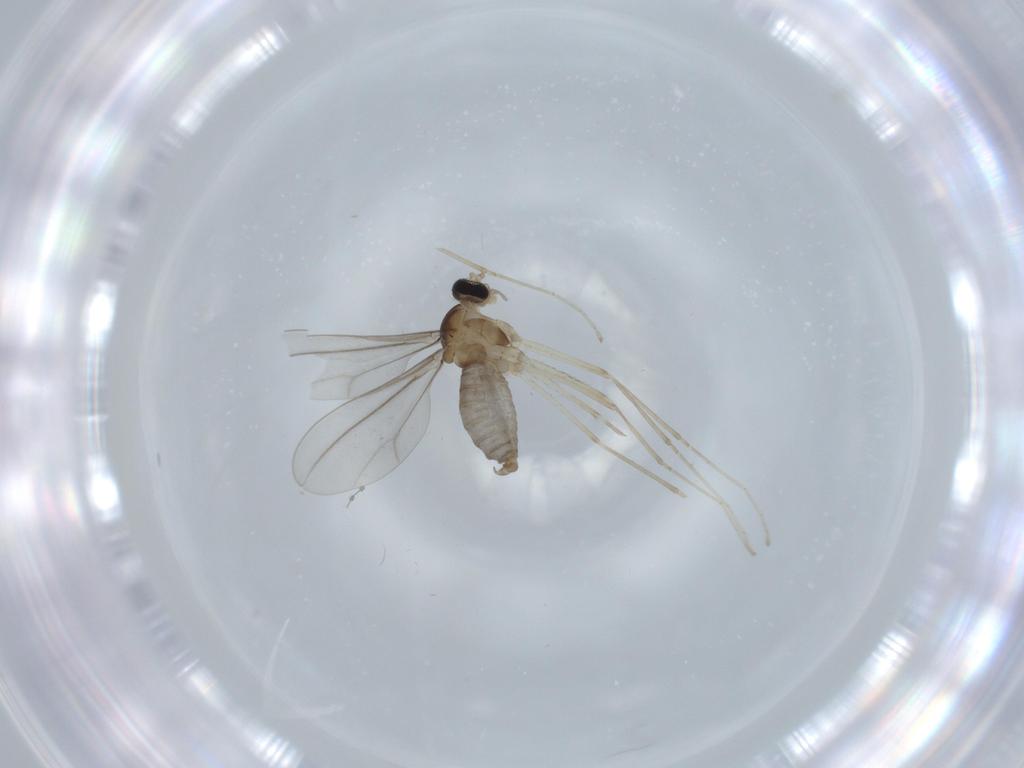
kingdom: Animalia
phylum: Arthropoda
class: Insecta
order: Diptera
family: Cecidomyiidae
